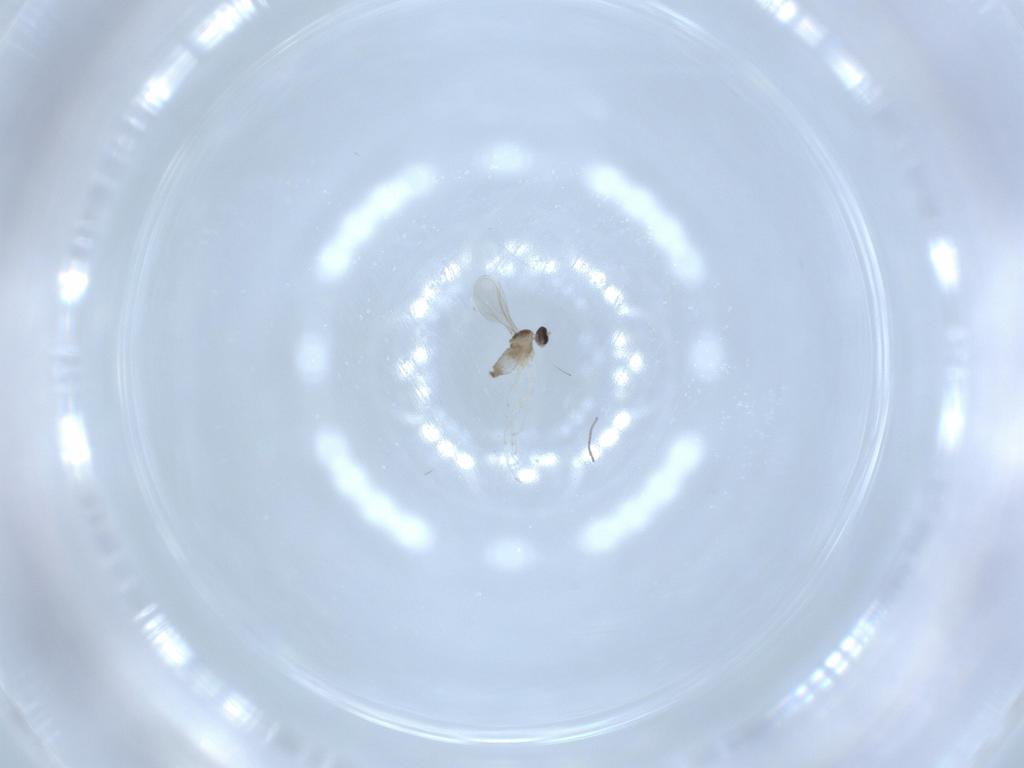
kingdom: Animalia
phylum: Arthropoda
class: Insecta
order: Diptera
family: Cecidomyiidae
